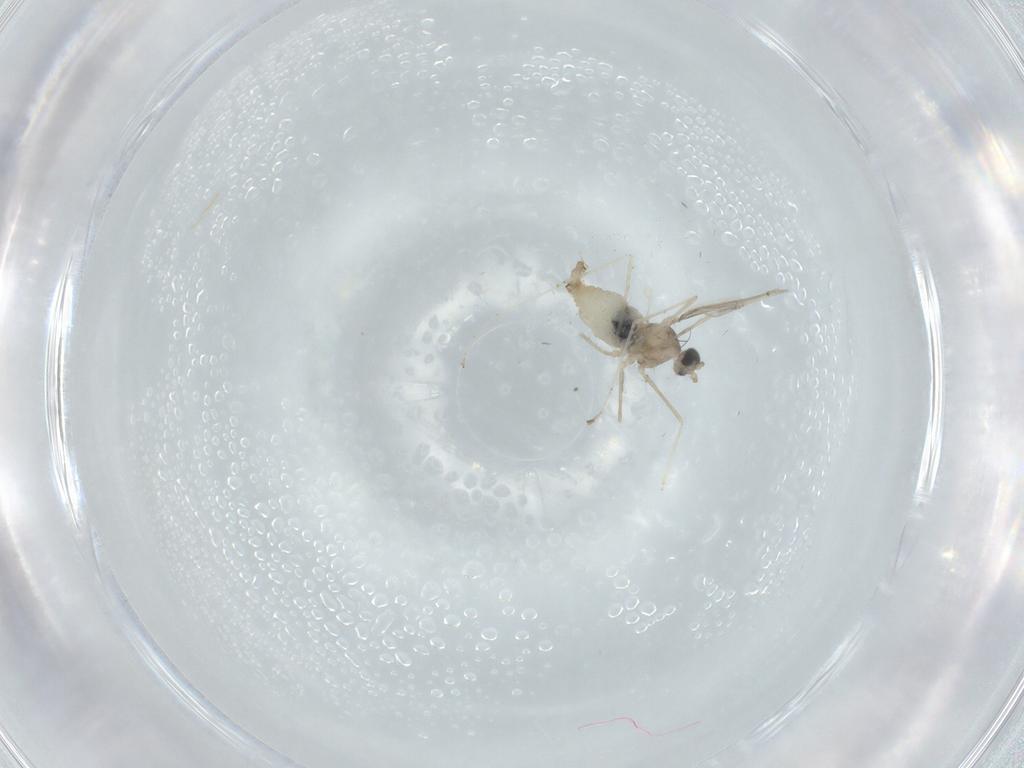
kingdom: Animalia
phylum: Arthropoda
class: Insecta
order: Diptera
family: Cecidomyiidae
